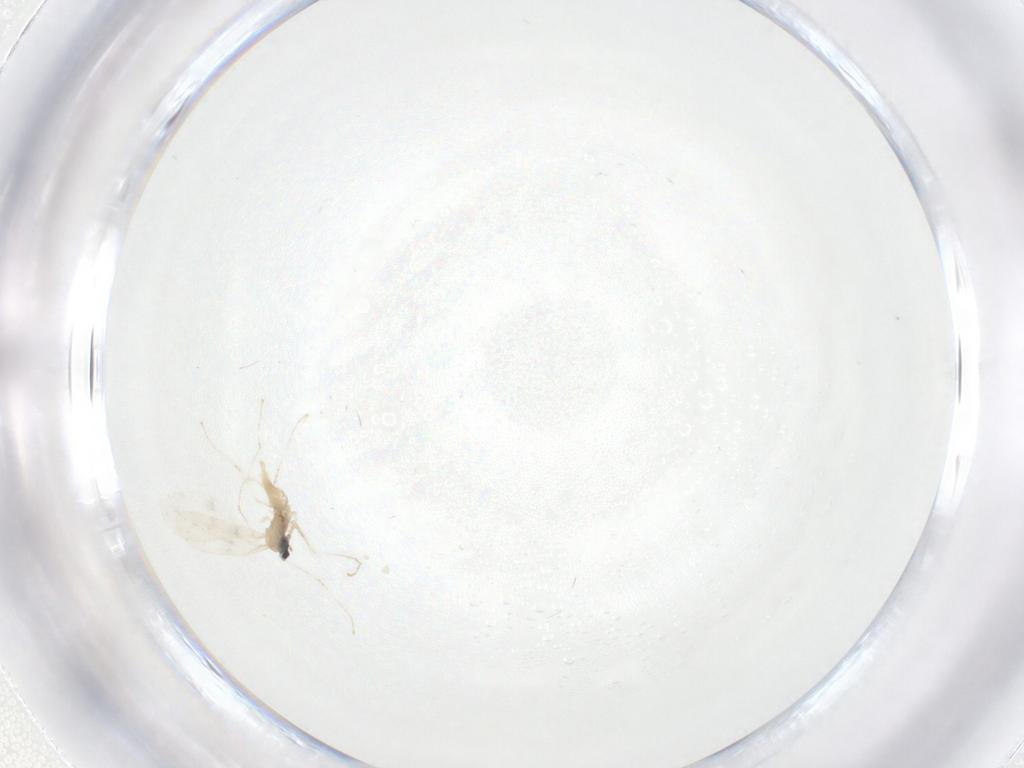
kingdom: Animalia
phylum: Arthropoda
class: Insecta
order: Diptera
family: Cecidomyiidae
